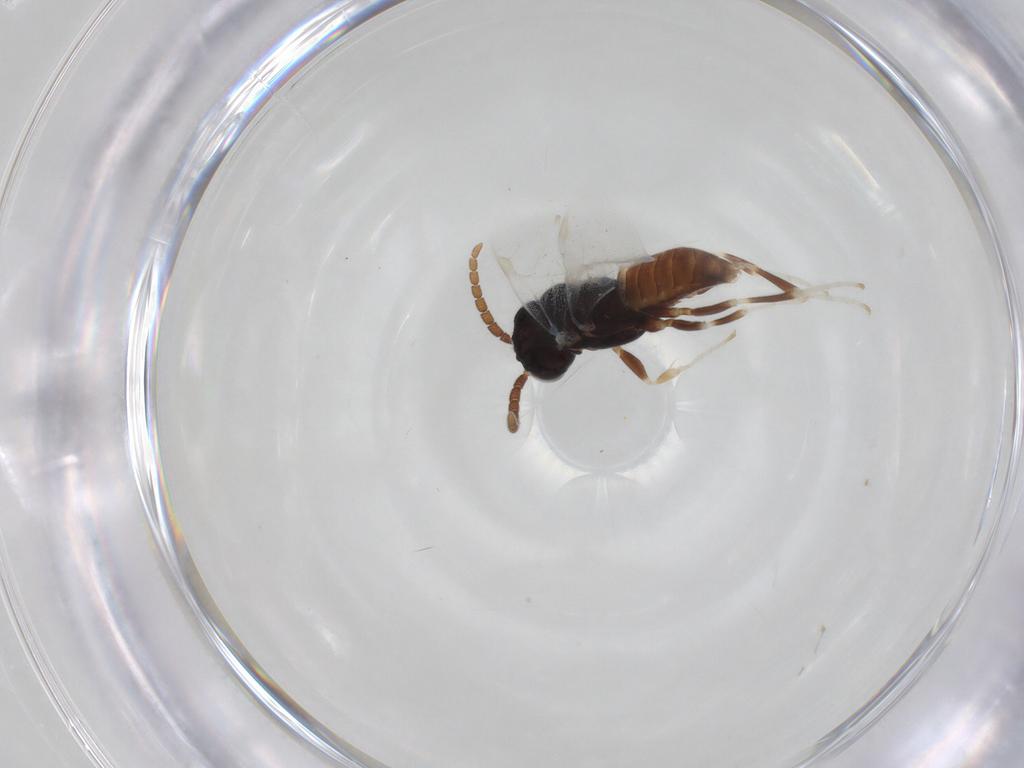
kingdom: Animalia
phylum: Arthropoda
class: Insecta
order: Hymenoptera
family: Dryinidae
